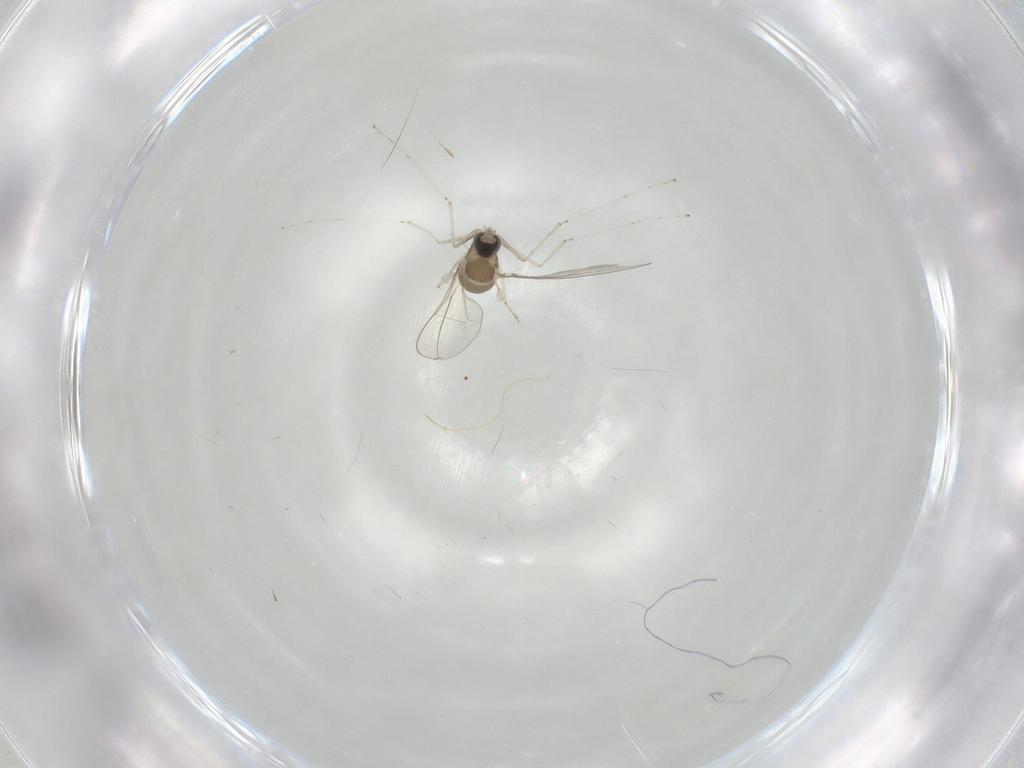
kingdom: Animalia
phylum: Arthropoda
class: Insecta
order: Diptera
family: Cecidomyiidae
